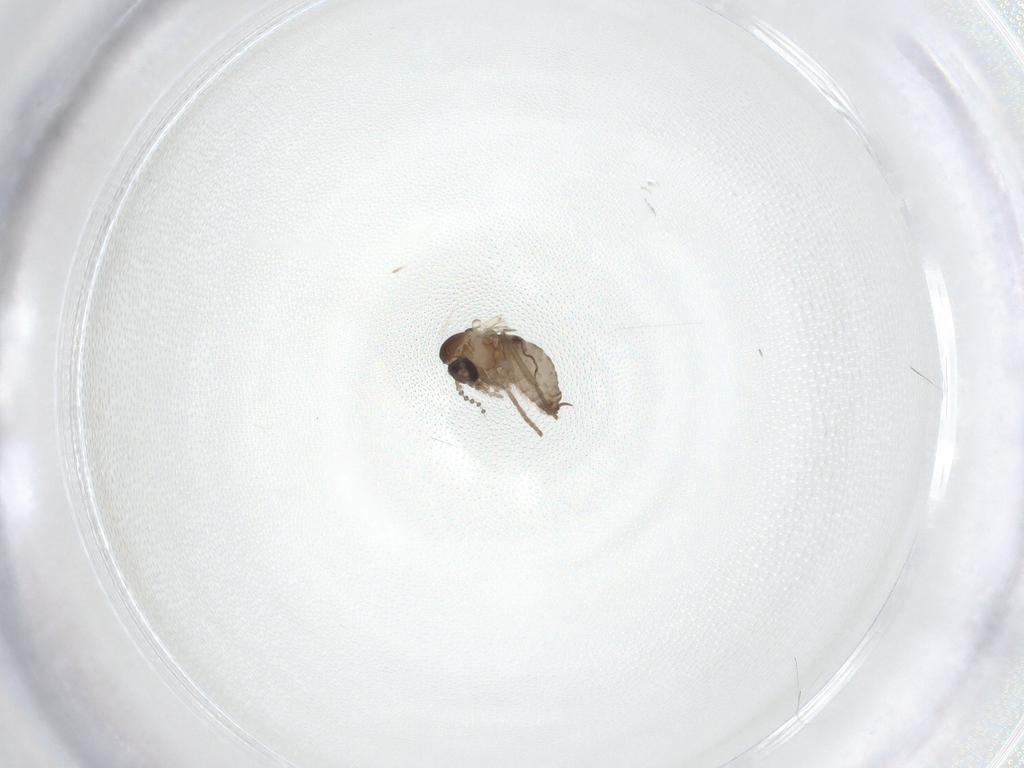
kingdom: Animalia
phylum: Arthropoda
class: Insecta
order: Diptera
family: Psychodidae
